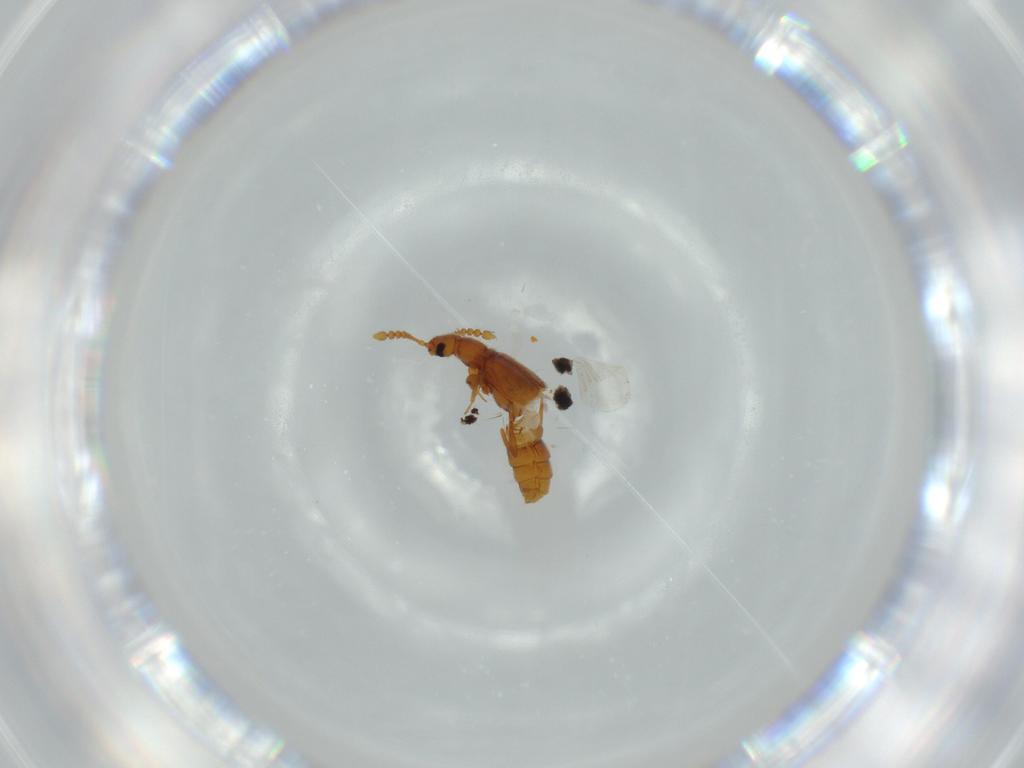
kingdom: Animalia
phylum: Arthropoda
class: Insecta
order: Coleoptera
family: Staphylinidae
